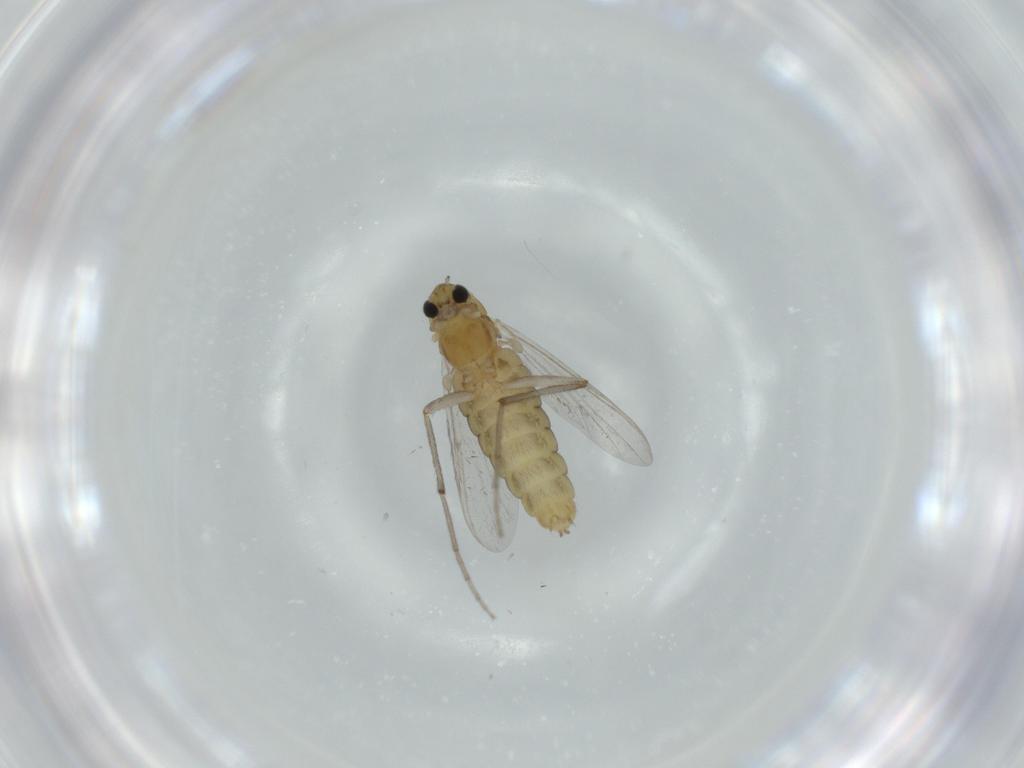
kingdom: Animalia
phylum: Arthropoda
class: Insecta
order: Diptera
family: Chironomidae
